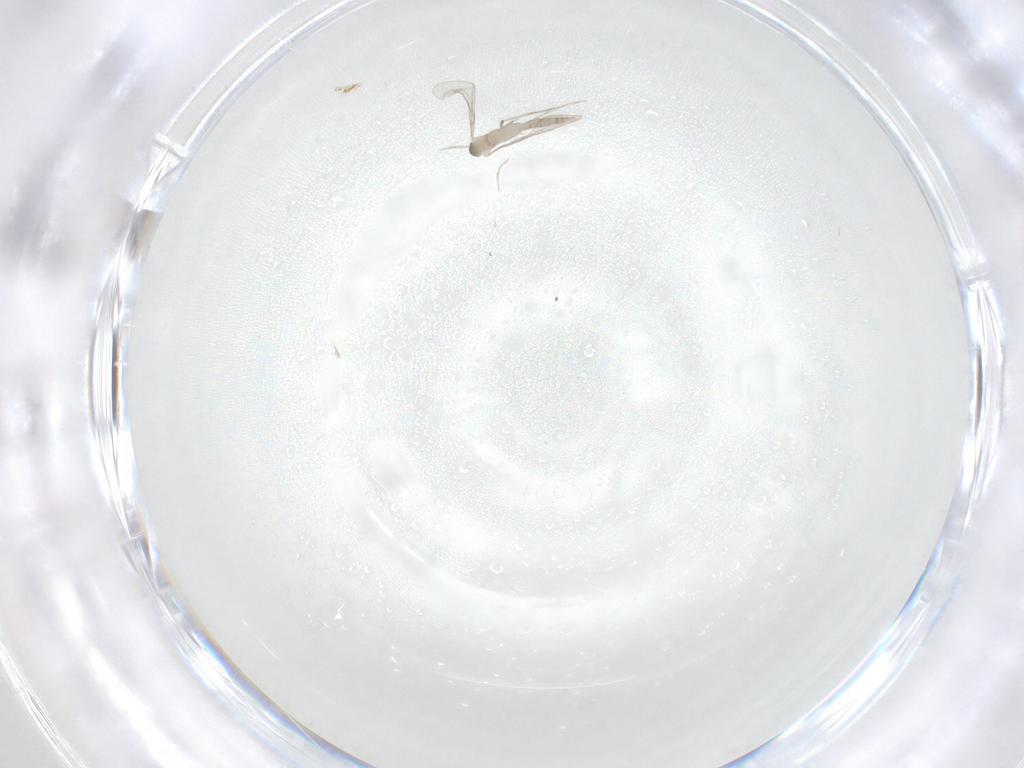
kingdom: Animalia
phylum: Arthropoda
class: Insecta
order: Diptera
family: Cecidomyiidae
